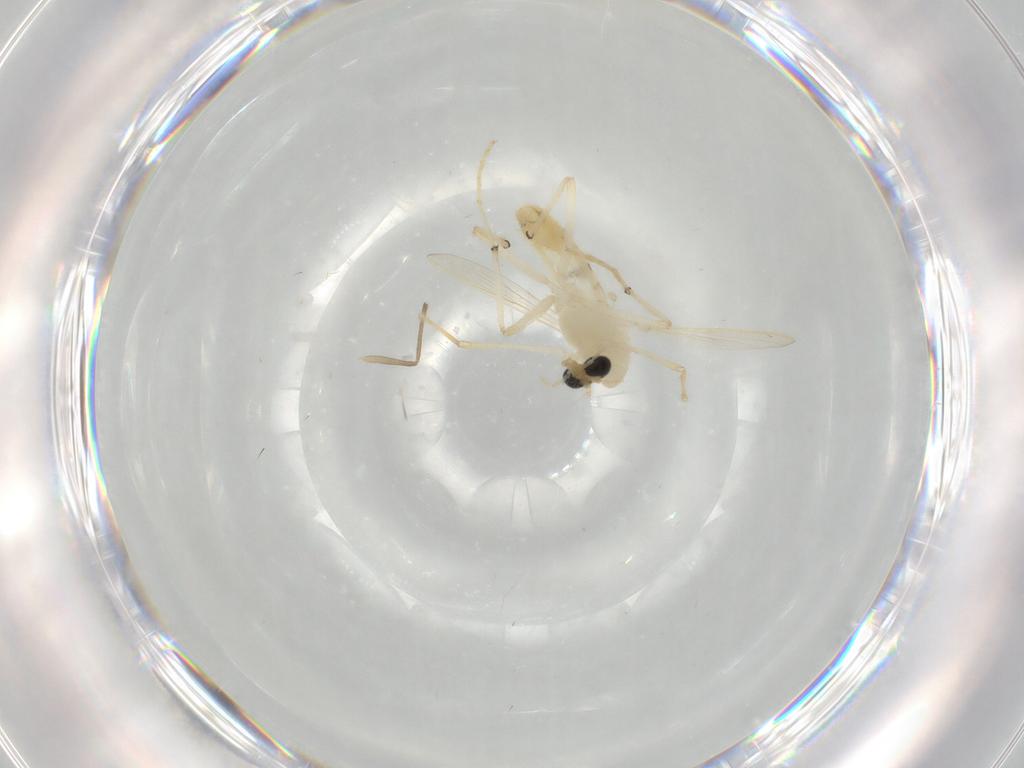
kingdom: Animalia
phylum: Arthropoda
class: Insecta
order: Diptera
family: Chironomidae
